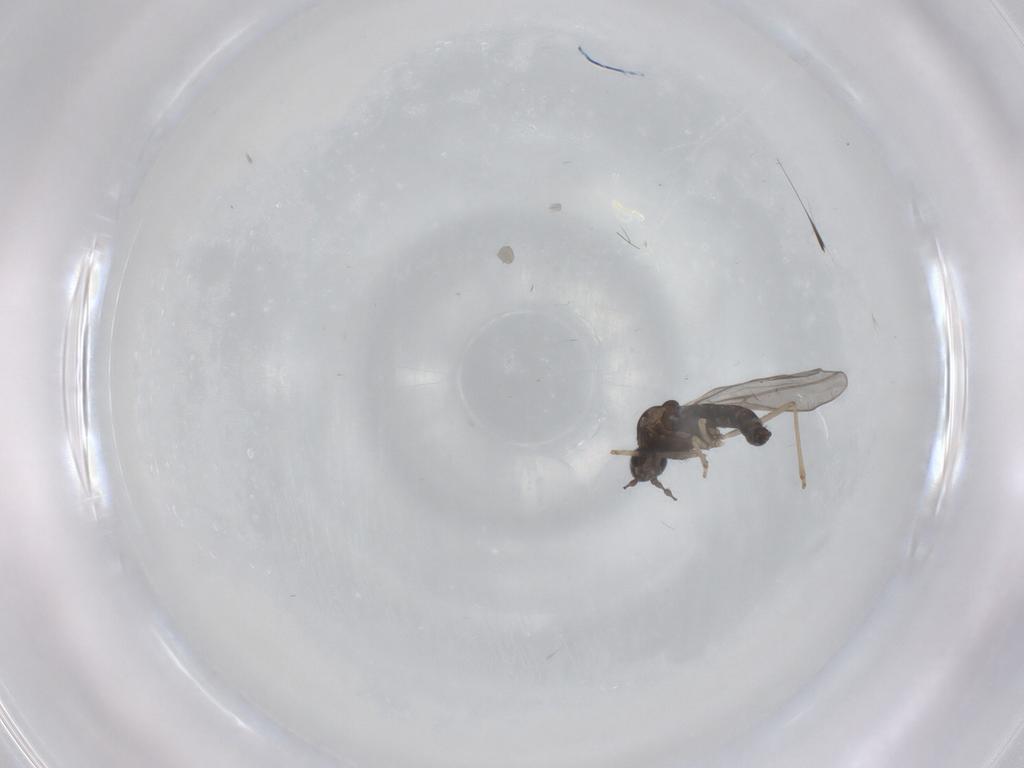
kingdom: Animalia
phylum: Arthropoda
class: Insecta
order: Diptera
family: Cecidomyiidae
